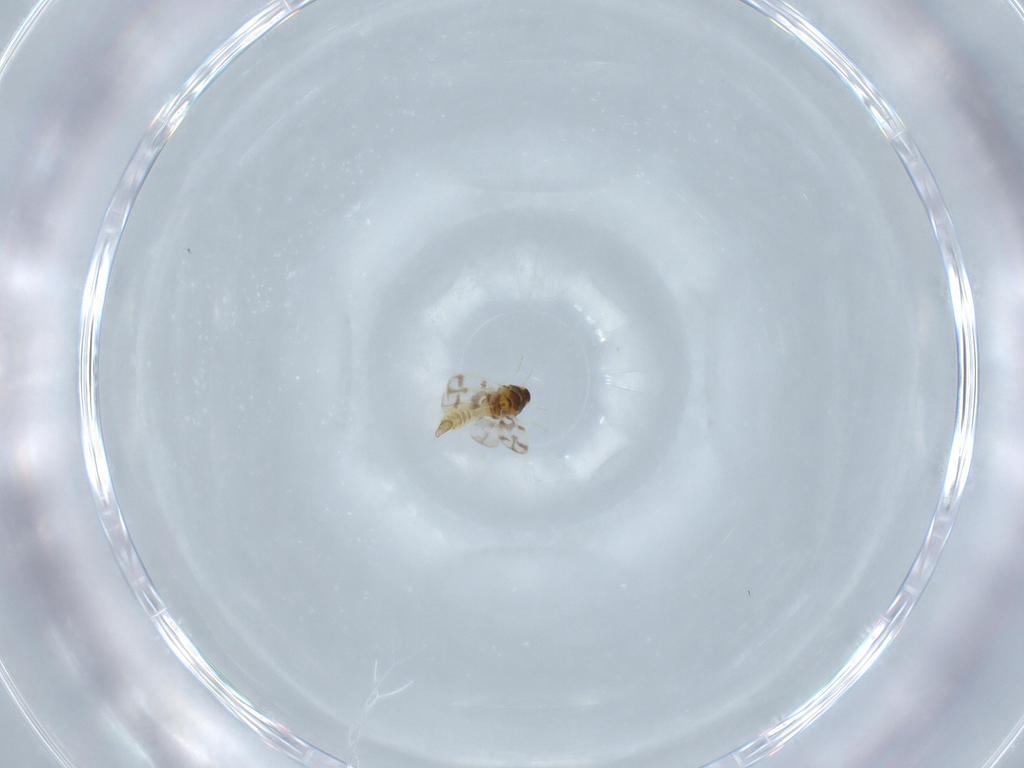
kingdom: Animalia
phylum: Arthropoda
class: Insecta
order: Hemiptera
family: Aleyrodidae
